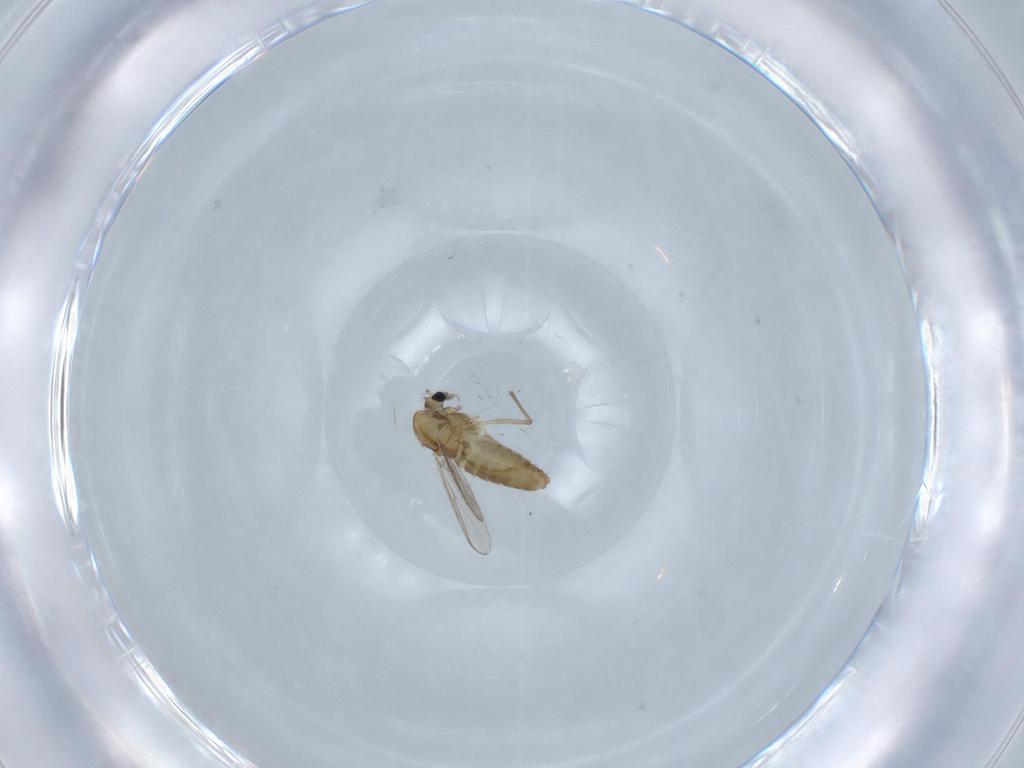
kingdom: Animalia
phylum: Arthropoda
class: Insecta
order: Diptera
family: Chironomidae
